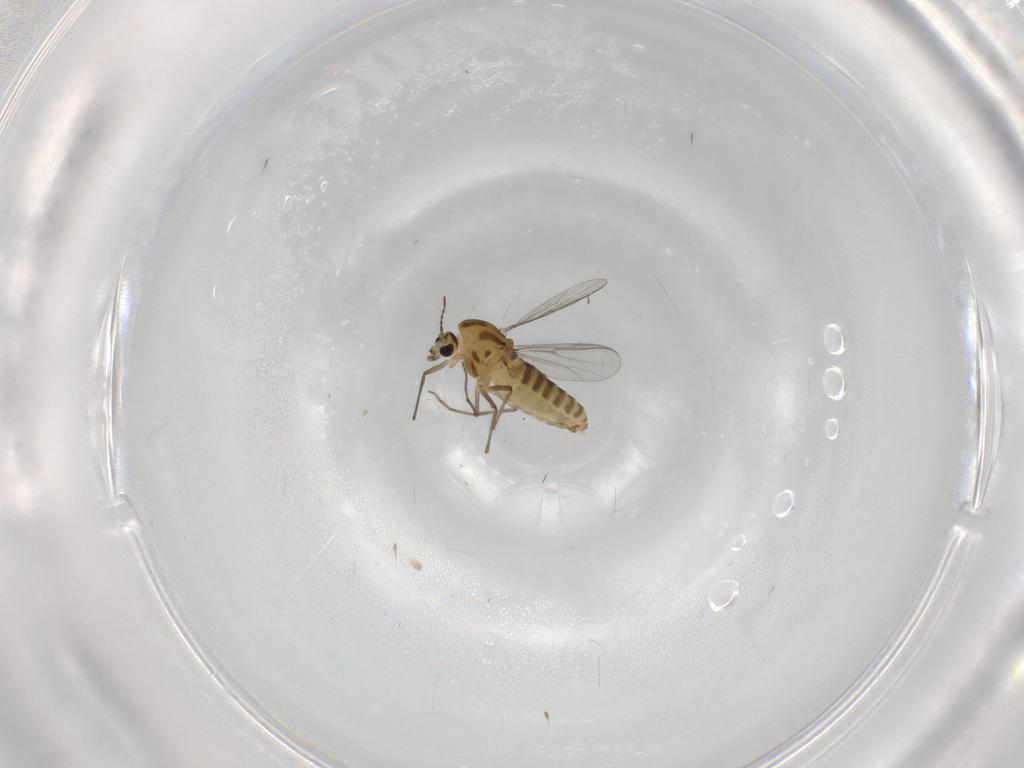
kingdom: Animalia
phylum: Arthropoda
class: Insecta
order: Diptera
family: Chironomidae
